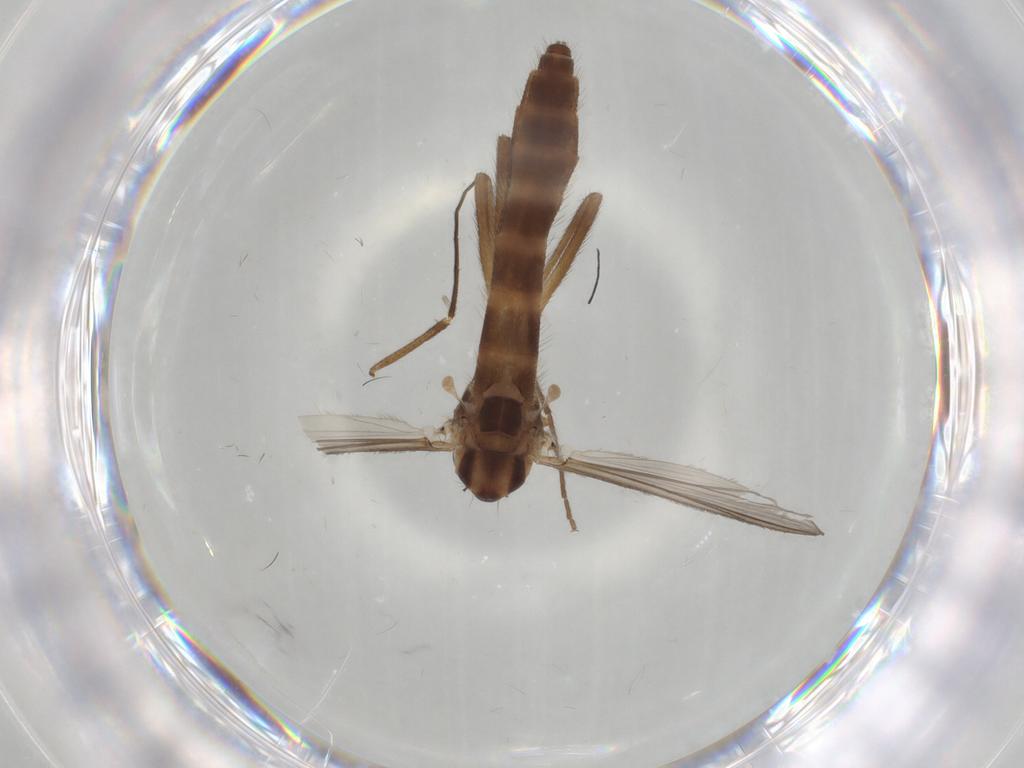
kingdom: Animalia
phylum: Arthropoda
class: Insecta
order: Diptera
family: Chironomidae
